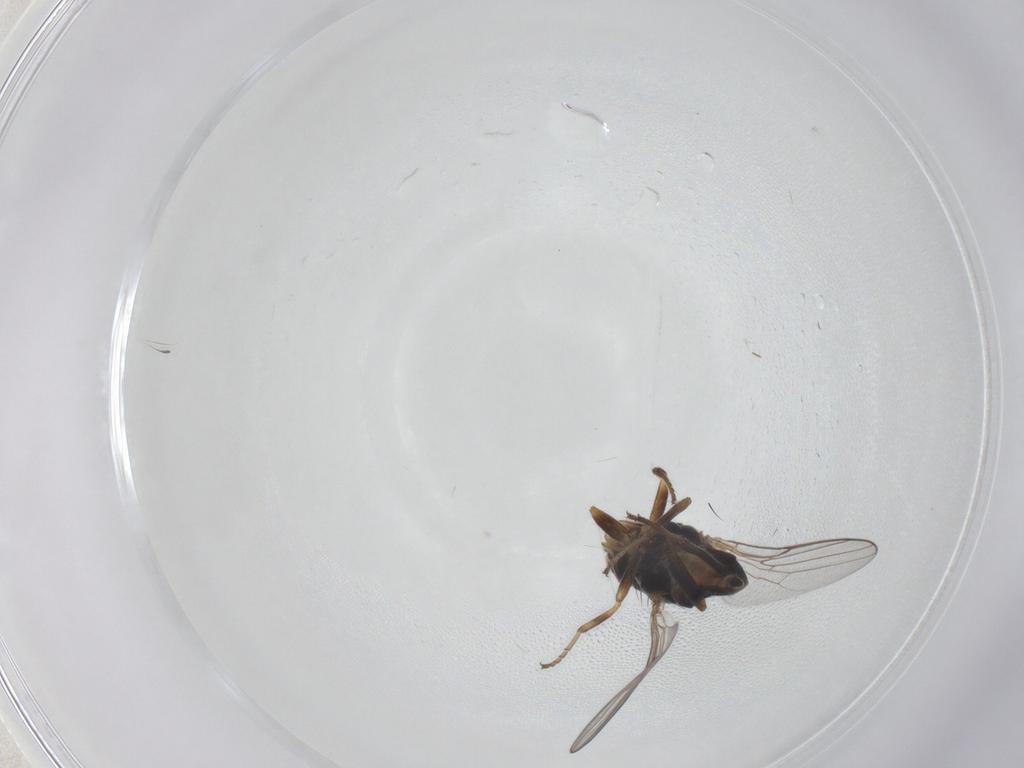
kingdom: Animalia
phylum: Arthropoda
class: Insecta
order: Diptera
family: Chloropidae
